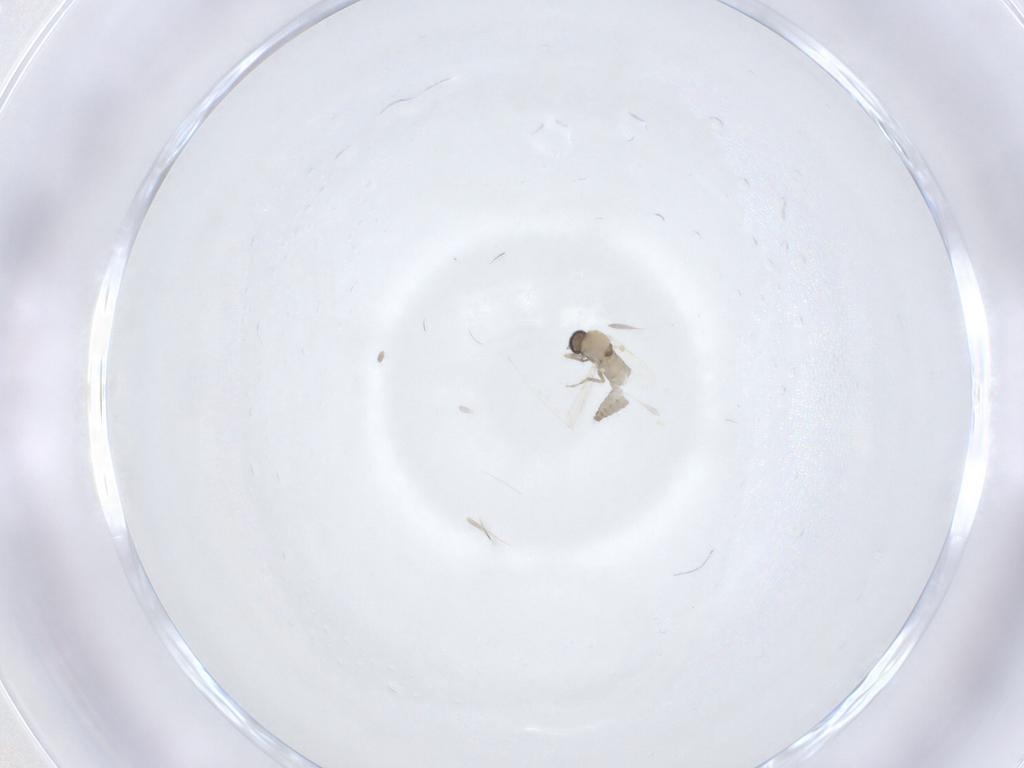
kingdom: Animalia
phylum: Arthropoda
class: Insecta
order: Diptera
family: Ceratopogonidae
